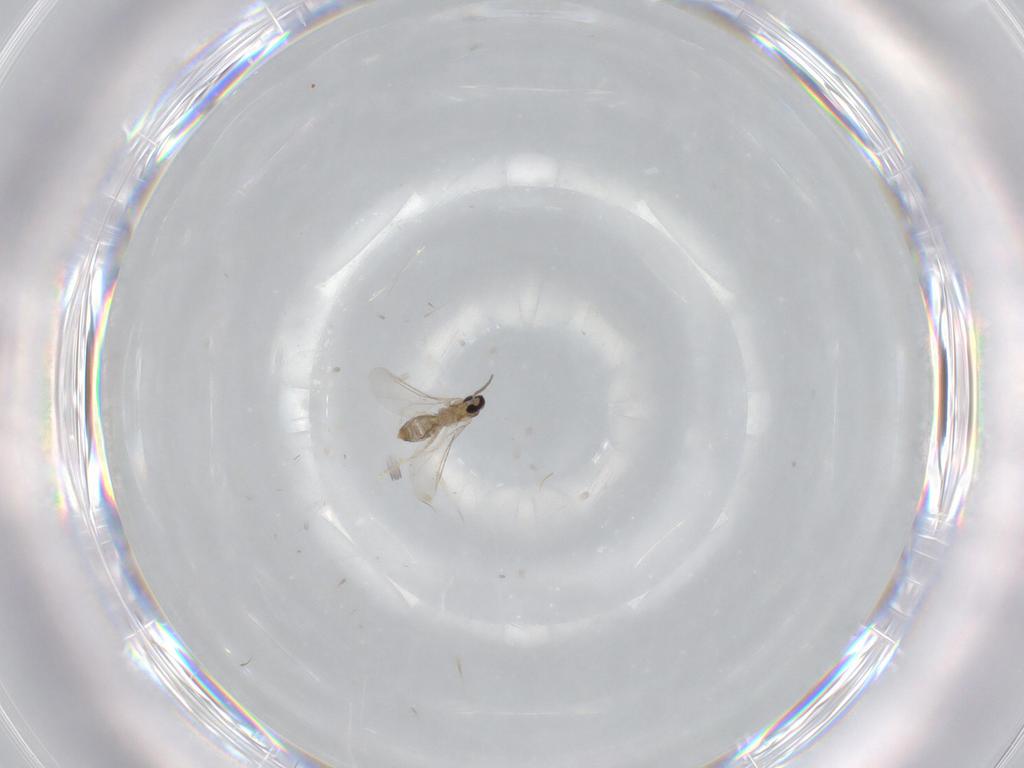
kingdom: Animalia
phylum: Arthropoda
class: Insecta
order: Diptera
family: Cecidomyiidae
